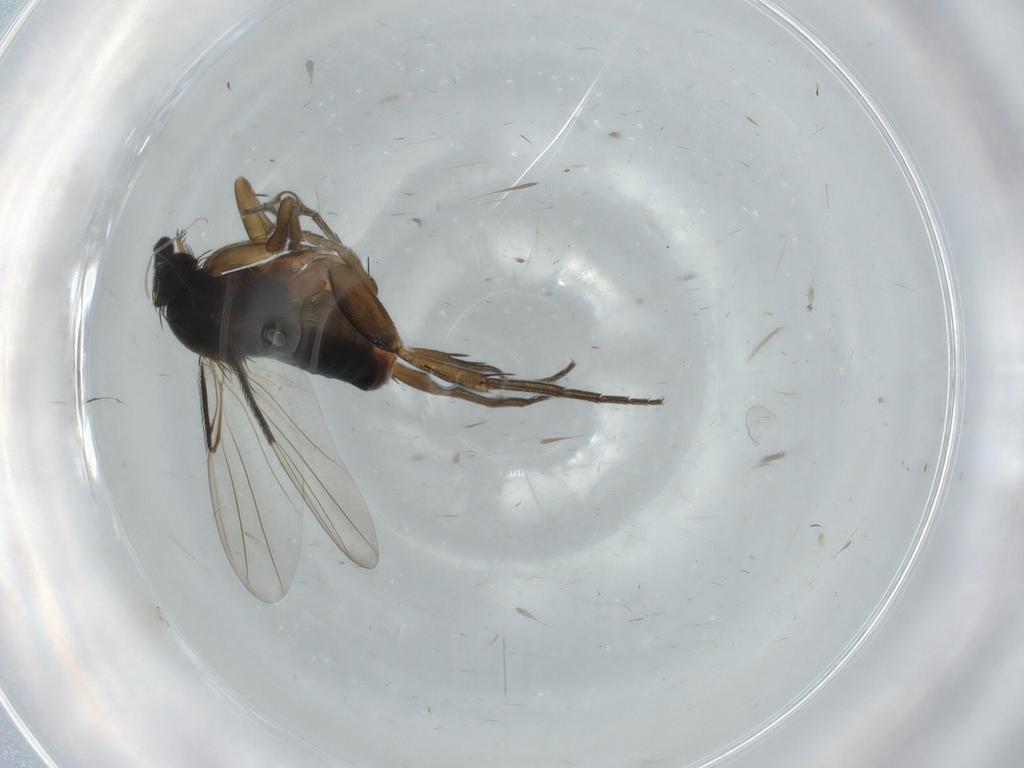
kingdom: Animalia
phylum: Arthropoda
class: Insecta
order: Diptera
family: Phoridae
